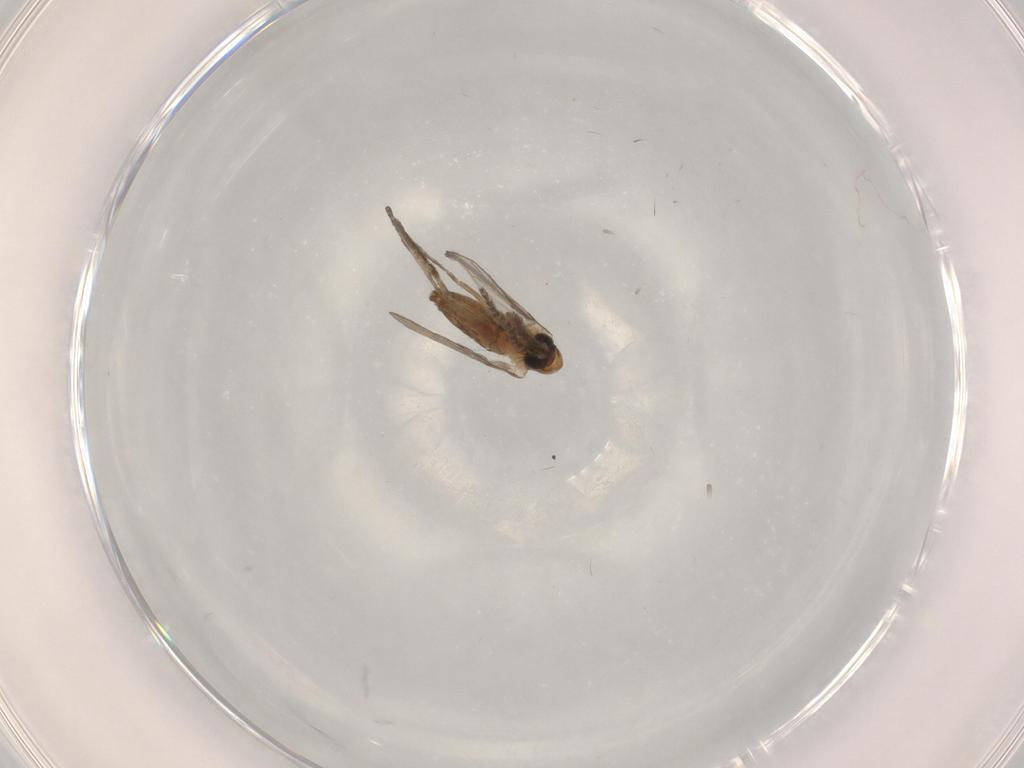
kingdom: Animalia
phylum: Arthropoda
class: Insecta
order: Diptera
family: Psychodidae
